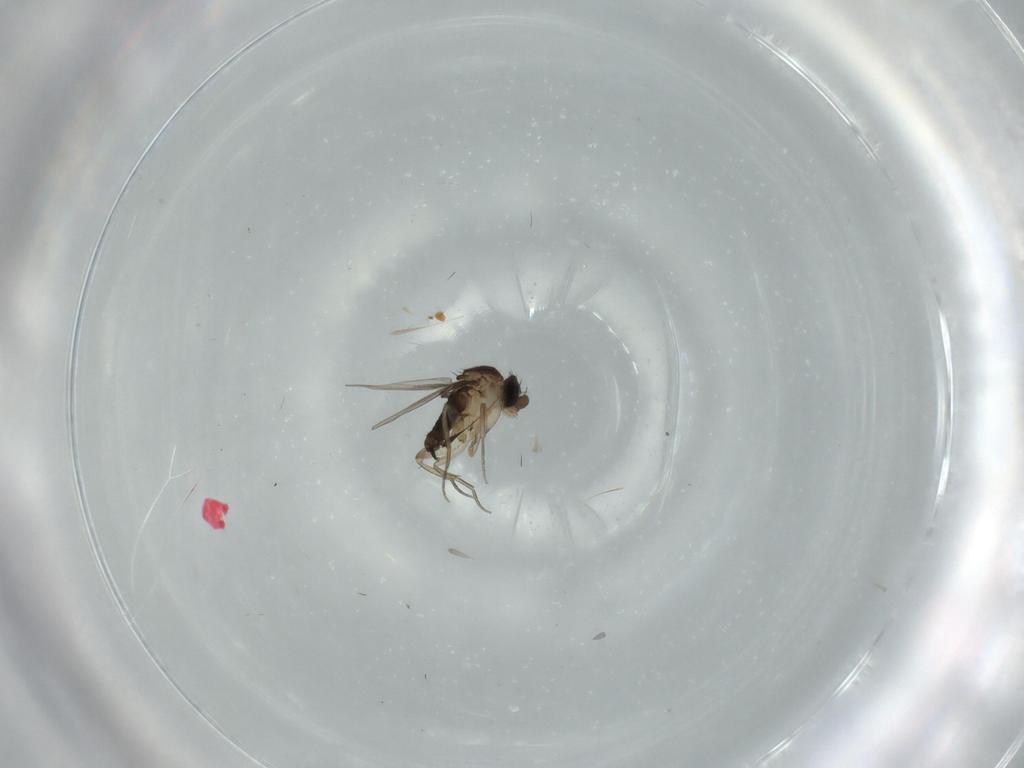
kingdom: Animalia
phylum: Arthropoda
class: Insecta
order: Diptera
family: Phoridae
